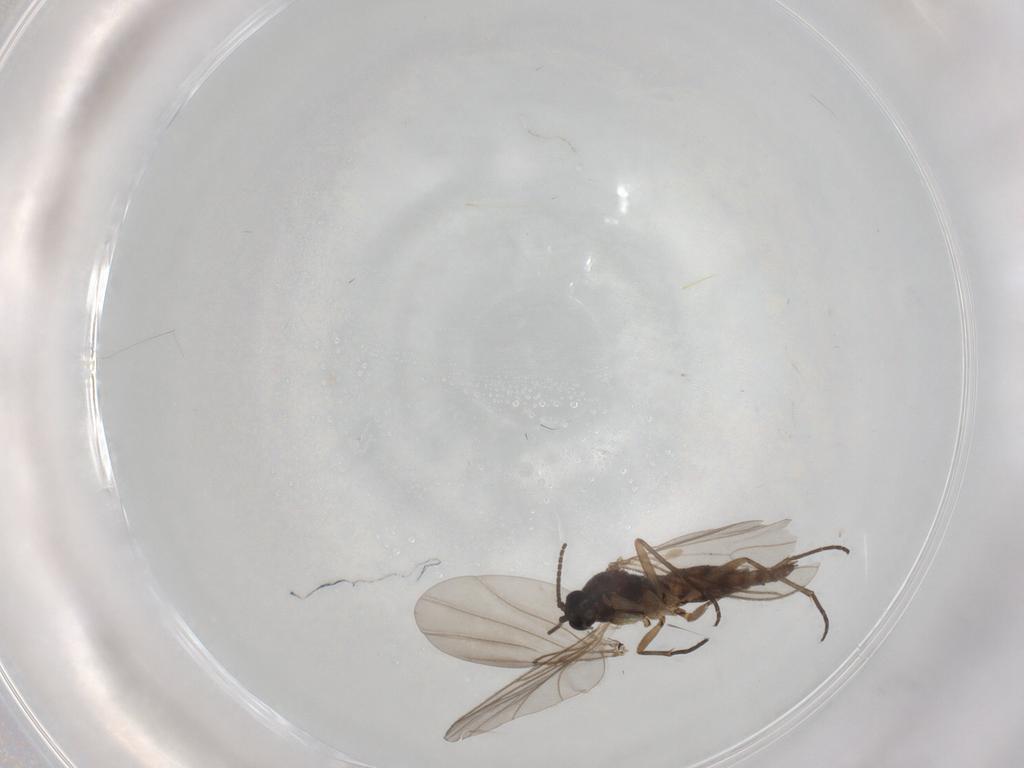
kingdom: Animalia
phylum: Arthropoda
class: Insecta
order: Diptera
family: Sciaridae
